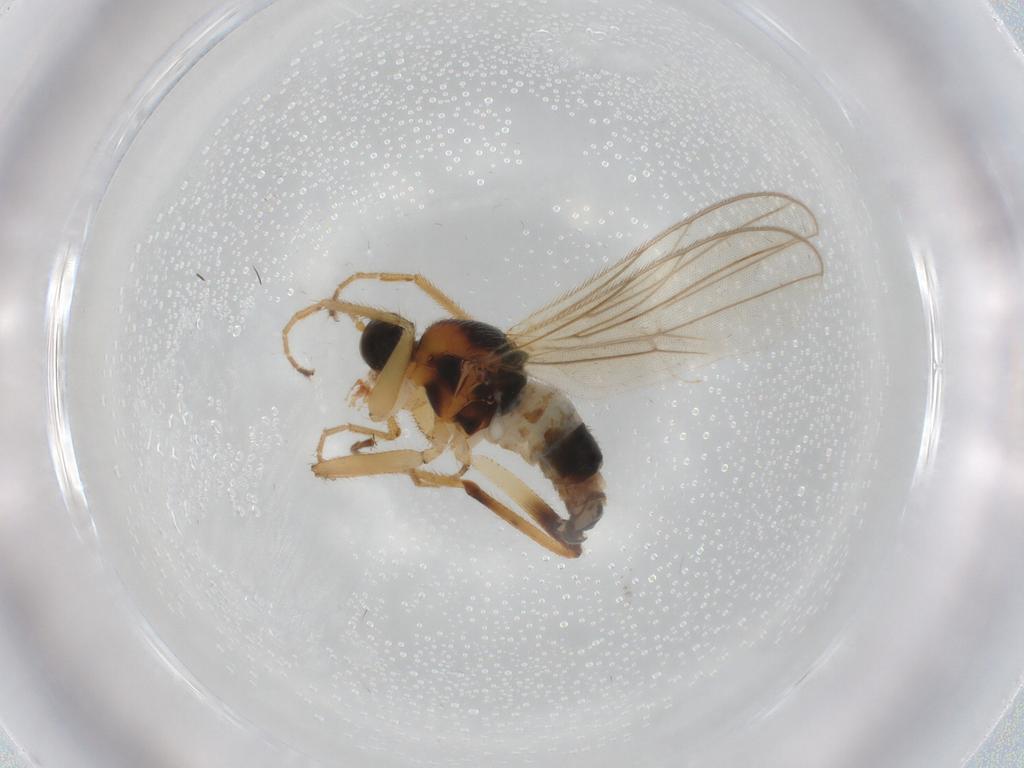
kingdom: Animalia
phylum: Arthropoda
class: Insecta
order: Diptera
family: Hybotidae
